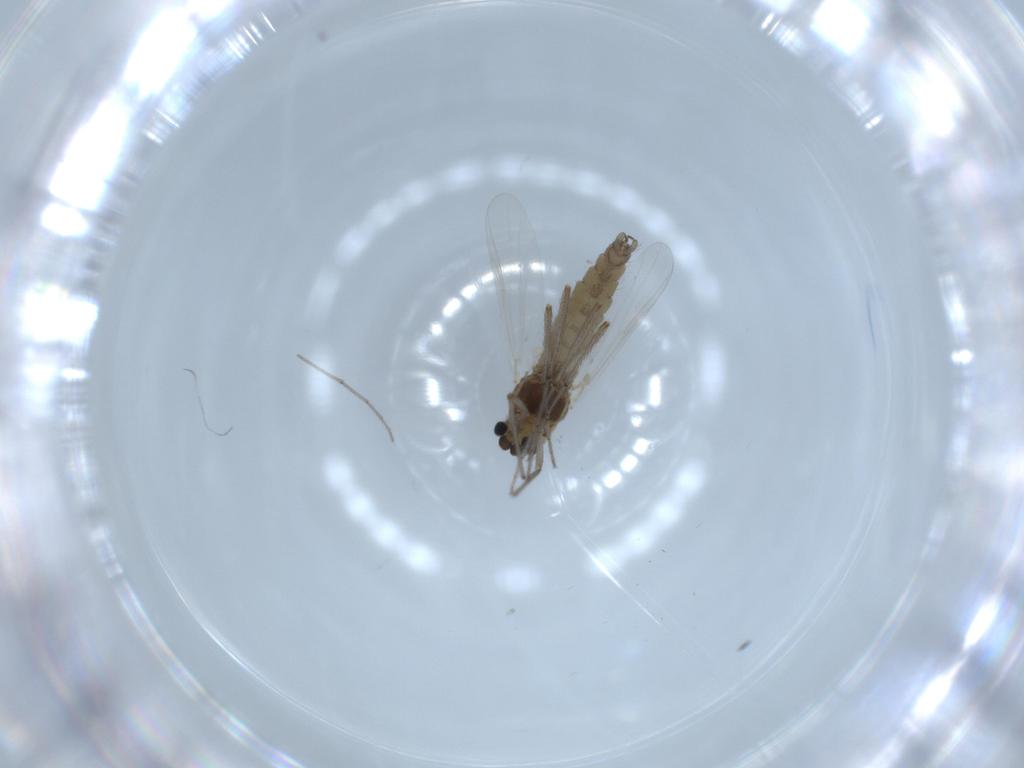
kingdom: Animalia
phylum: Arthropoda
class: Insecta
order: Diptera
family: Chironomidae
